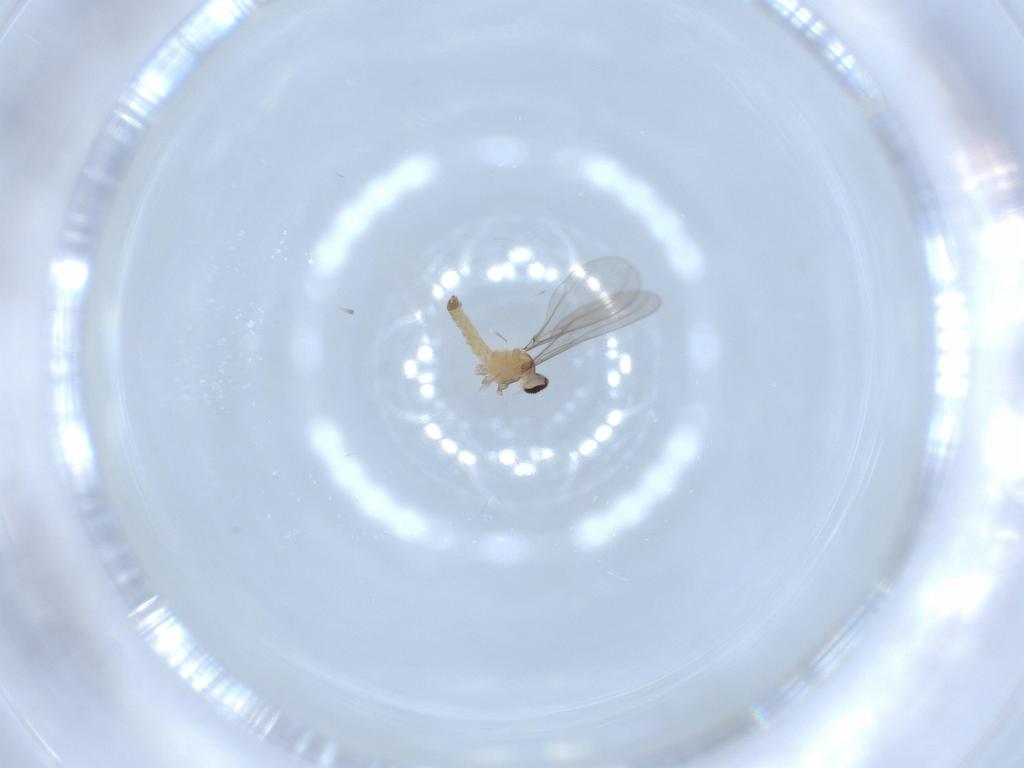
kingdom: Animalia
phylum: Arthropoda
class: Insecta
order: Diptera
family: Cecidomyiidae
